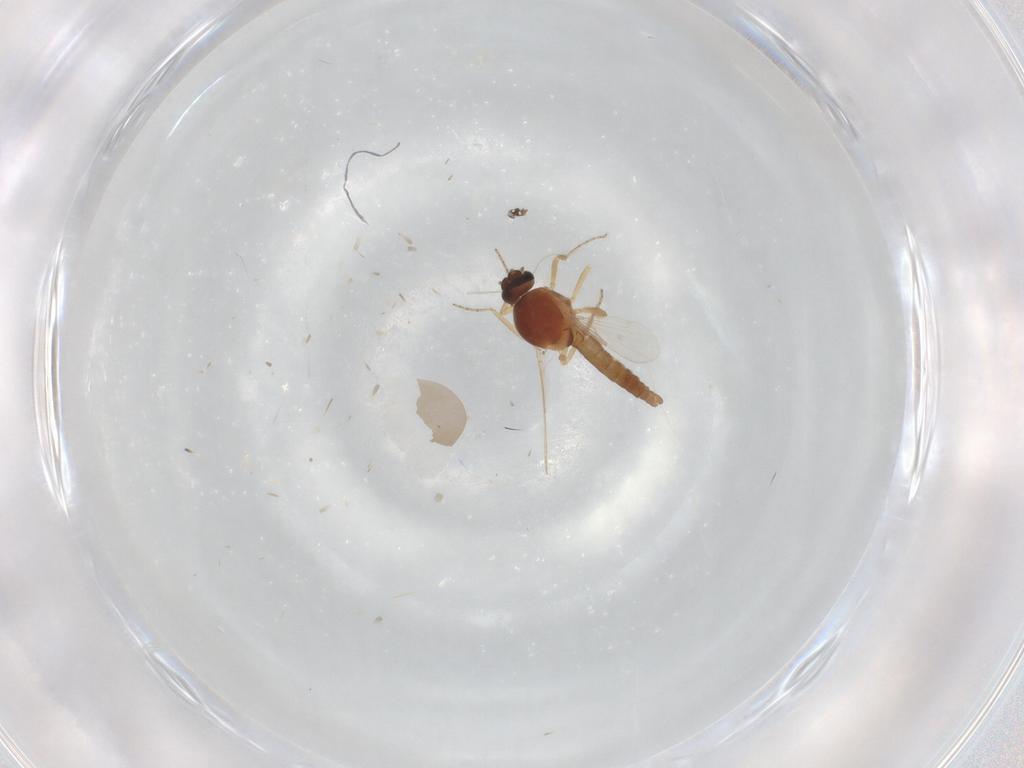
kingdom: Animalia
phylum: Arthropoda
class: Insecta
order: Diptera
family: Ceratopogonidae
